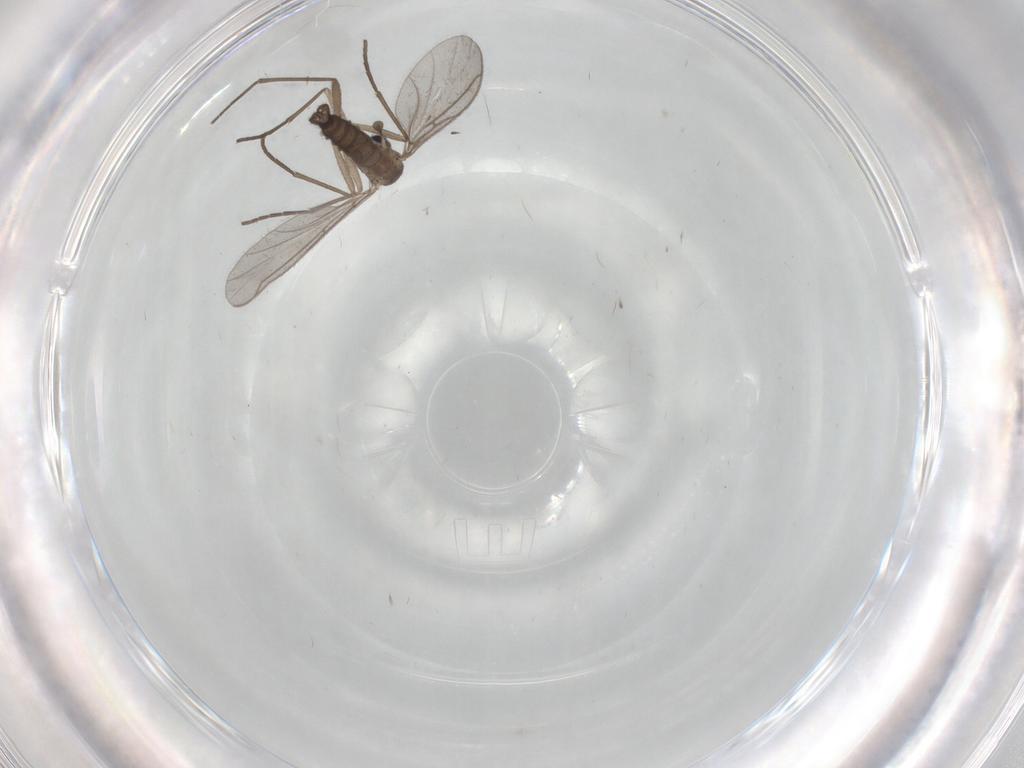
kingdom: Animalia
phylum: Arthropoda
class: Insecta
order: Diptera
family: Sciaridae
